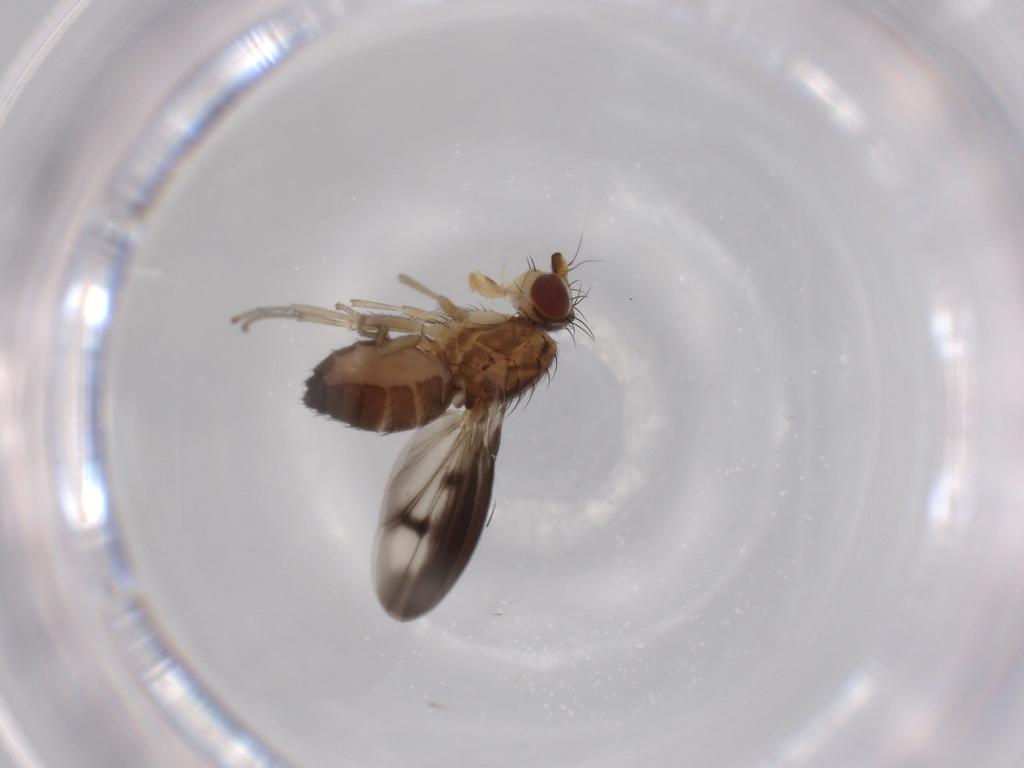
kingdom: Animalia
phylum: Arthropoda
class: Insecta
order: Diptera
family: Heleomyzidae
